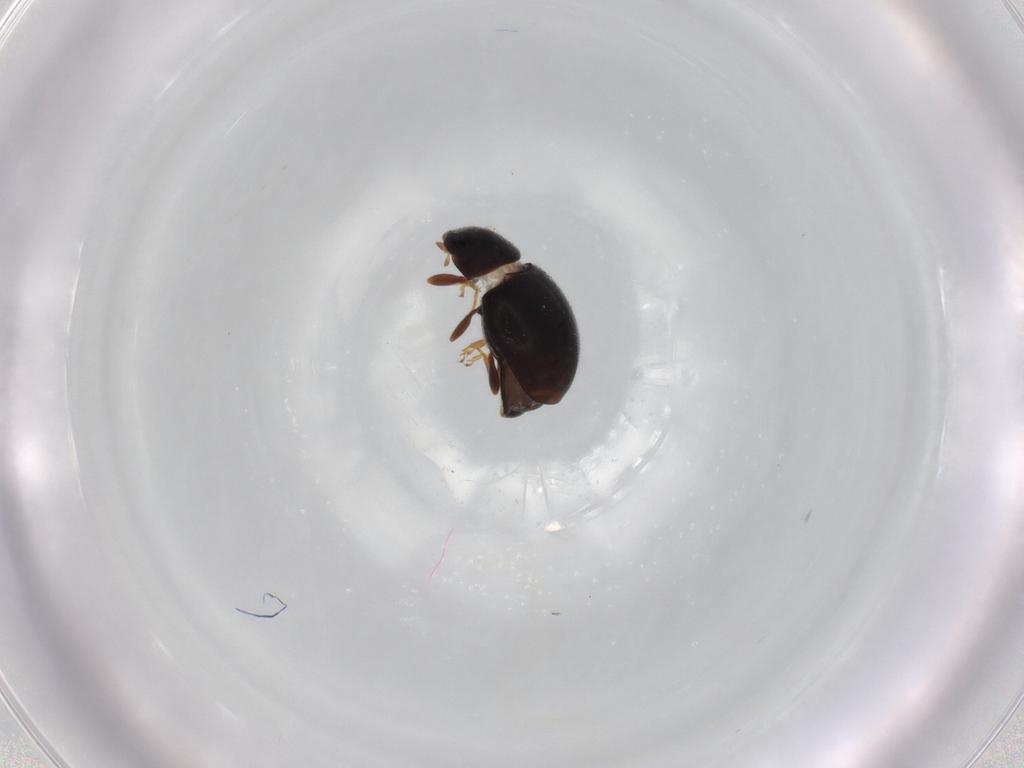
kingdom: Animalia
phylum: Arthropoda
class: Insecta
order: Coleoptera
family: Coccinellidae
